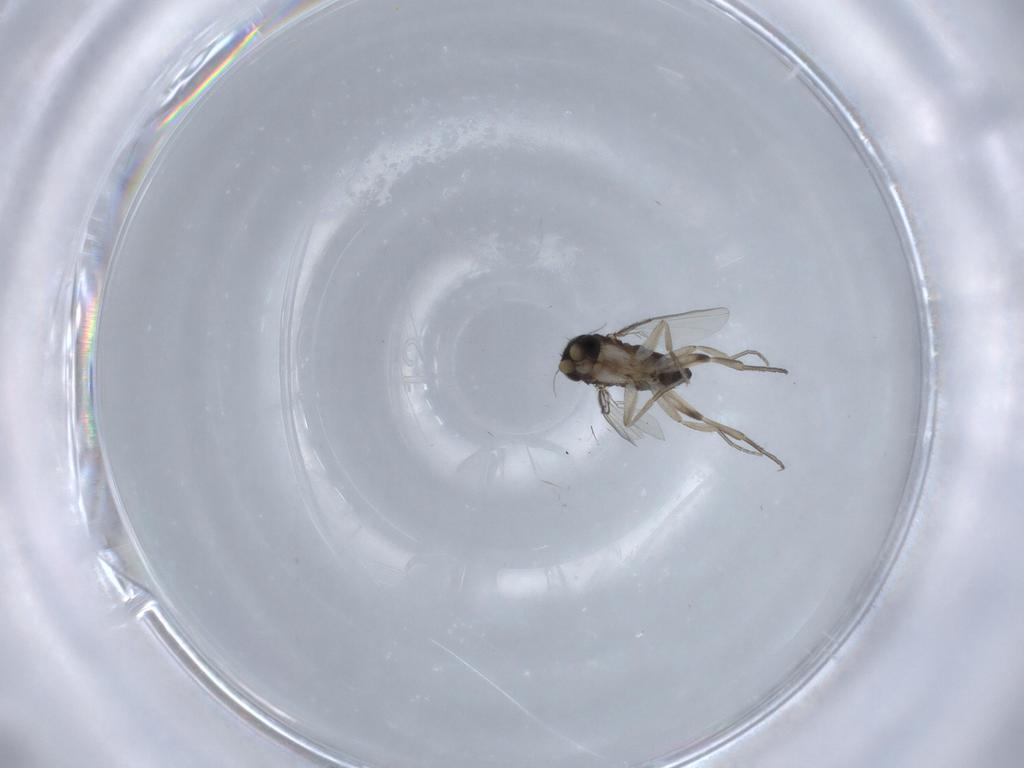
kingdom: Animalia
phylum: Arthropoda
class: Insecta
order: Diptera
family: Phoridae
